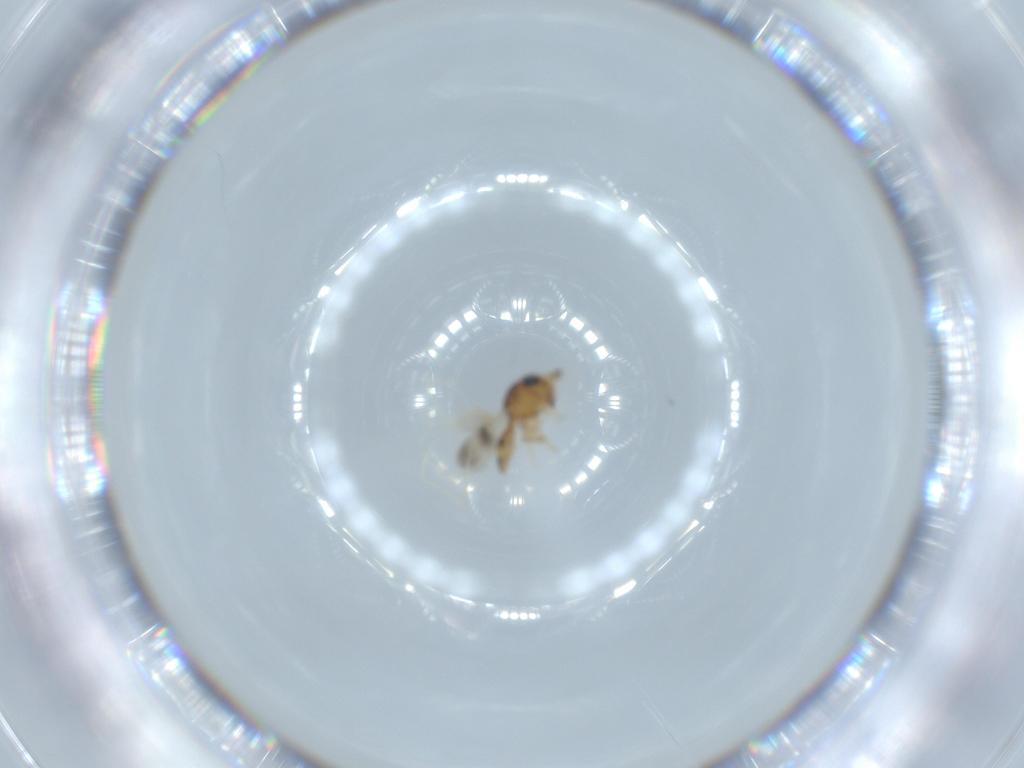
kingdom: Animalia
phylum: Arthropoda
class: Insecta
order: Hymenoptera
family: Scelionidae
